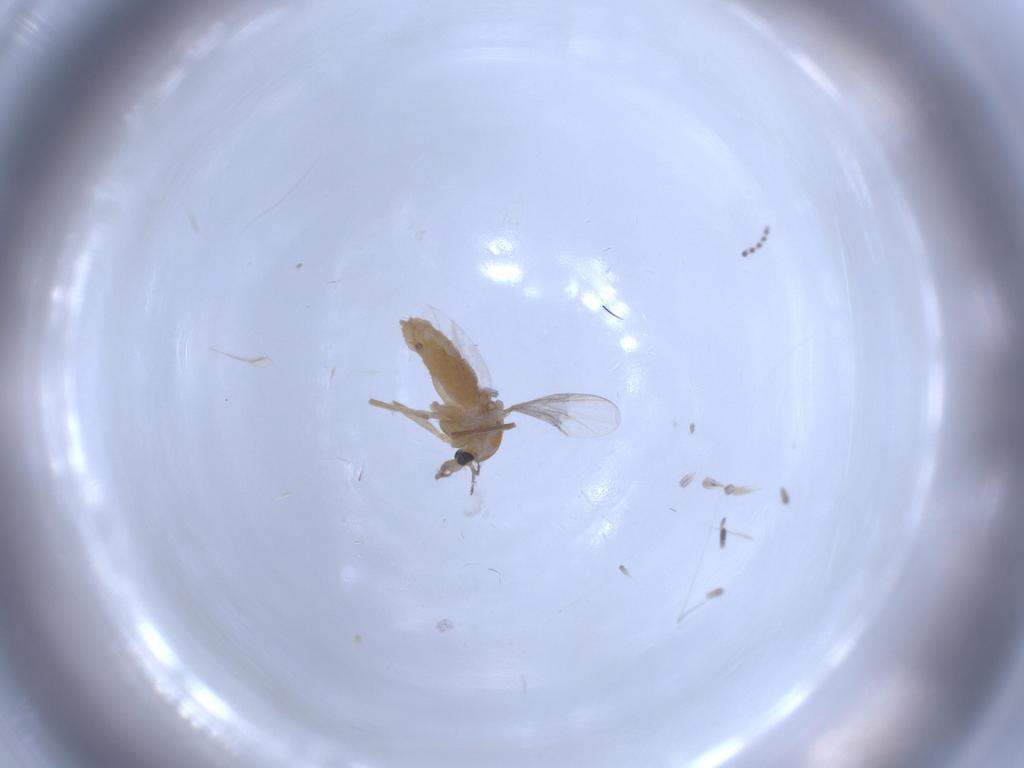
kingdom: Animalia
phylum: Arthropoda
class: Insecta
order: Diptera
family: Chironomidae
